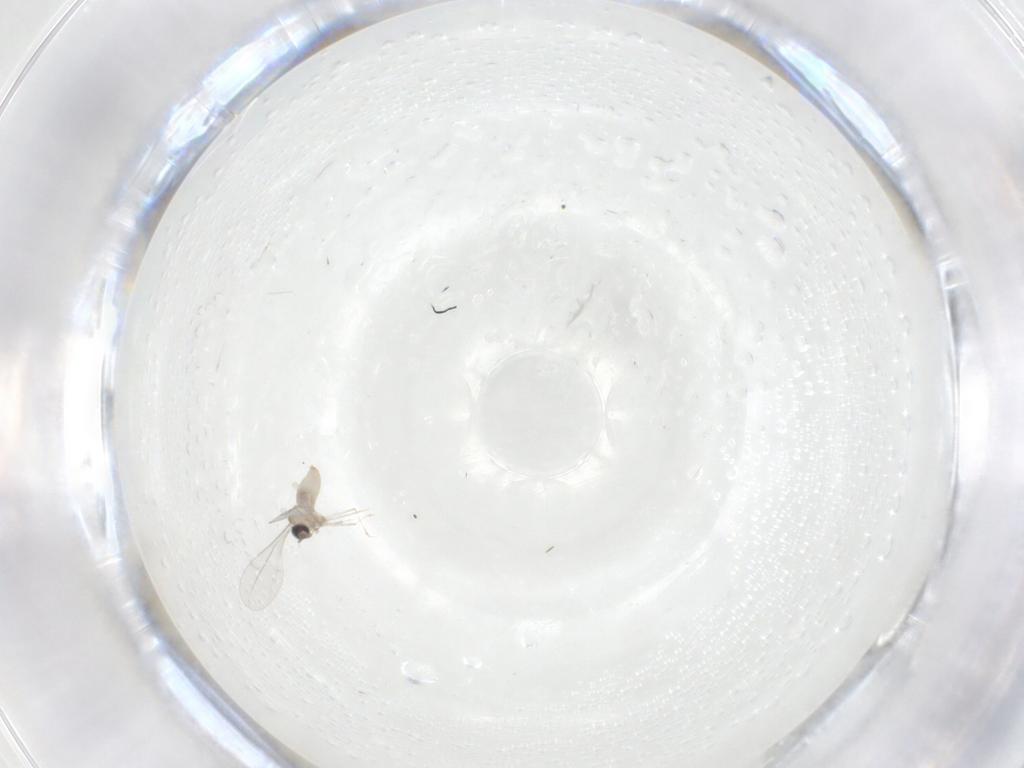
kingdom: Animalia
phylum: Arthropoda
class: Insecta
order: Diptera
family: Cecidomyiidae
